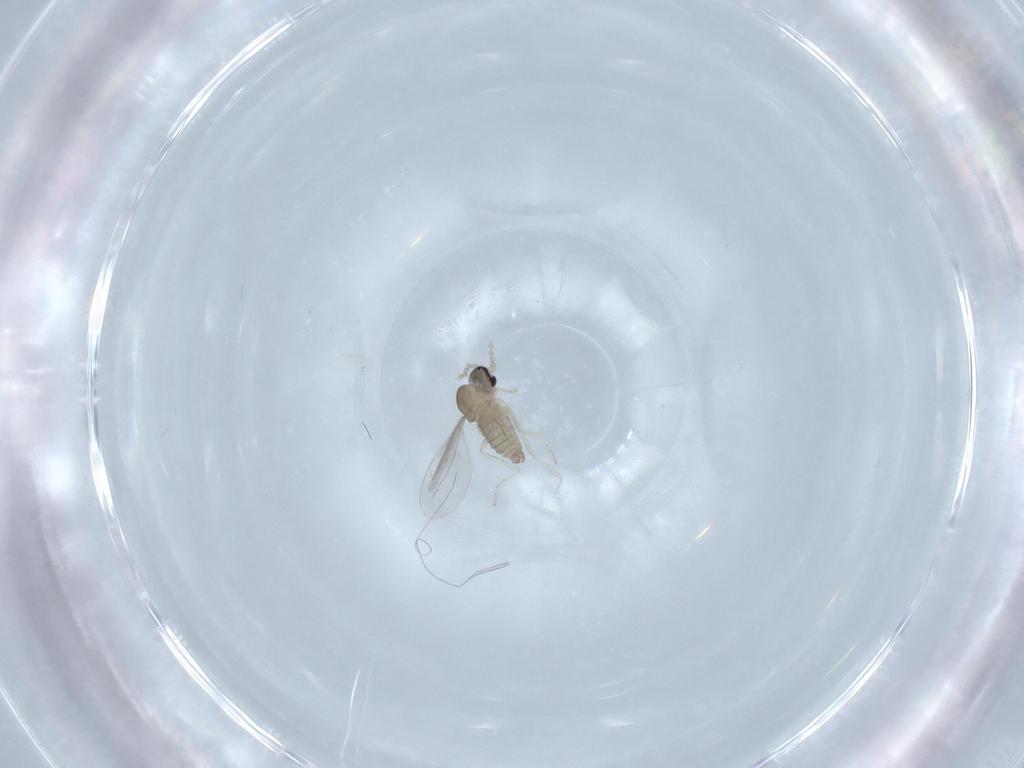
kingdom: Animalia
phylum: Arthropoda
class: Insecta
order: Diptera
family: Cecidomyiidae
